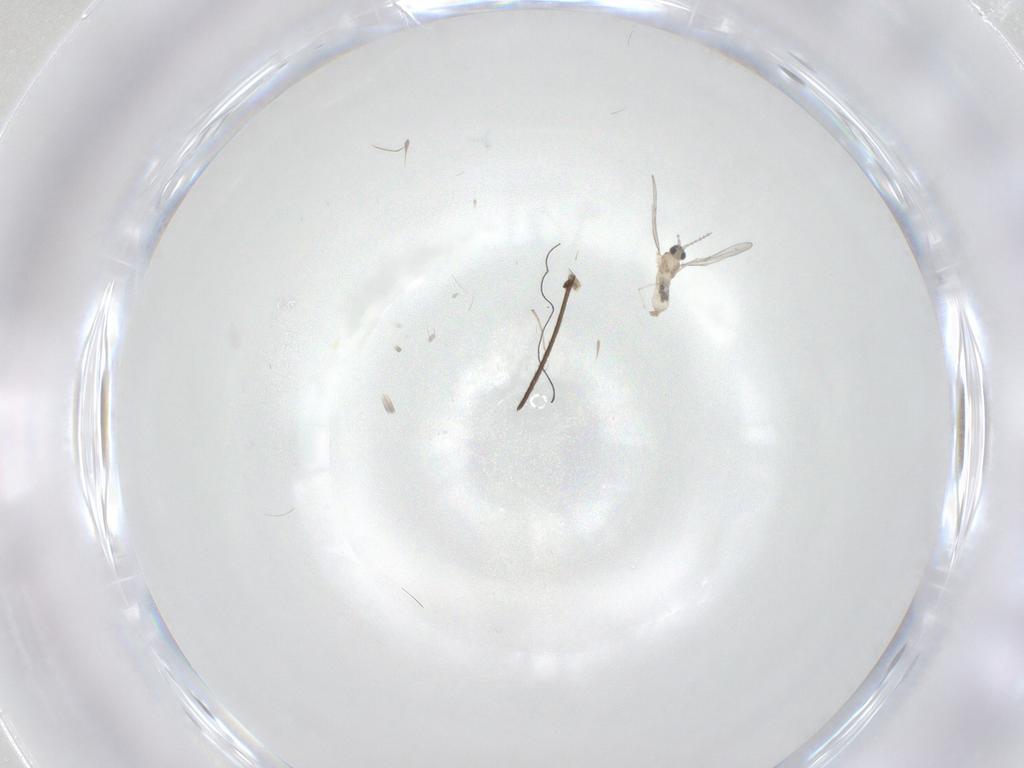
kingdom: Animalia
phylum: Arthropoda
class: Insecta
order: Diptera
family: Cecidomyiidae
